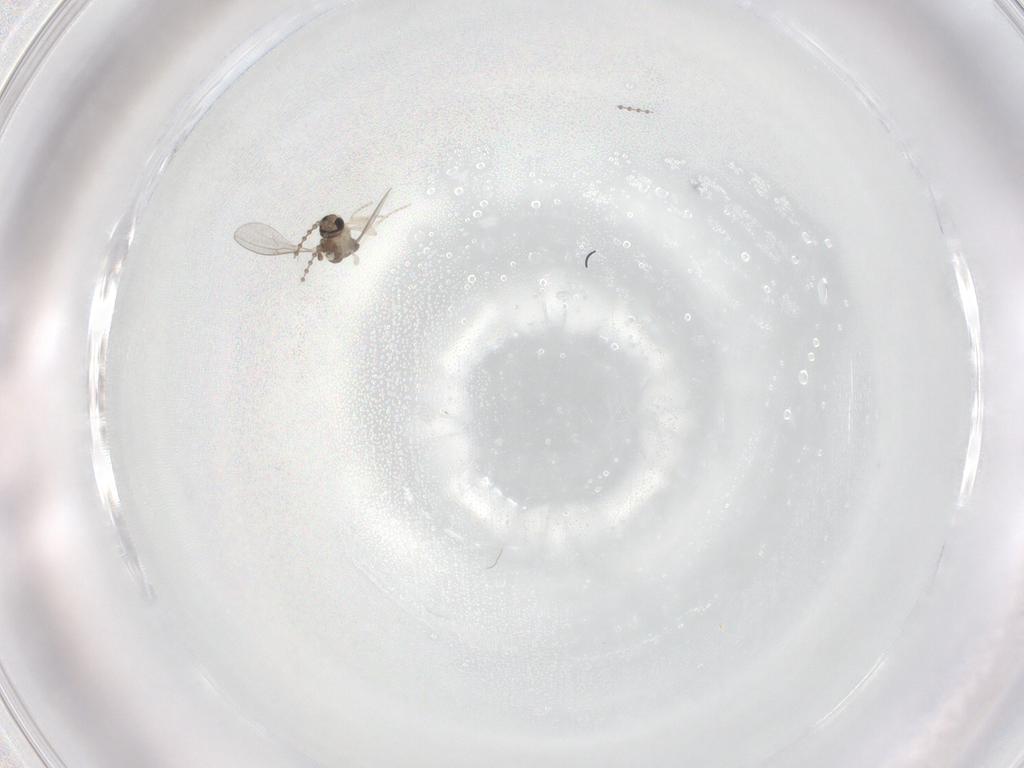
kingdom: Animalia
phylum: Arthropoda
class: Insecta
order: Diptera
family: Cecidomyiidae
